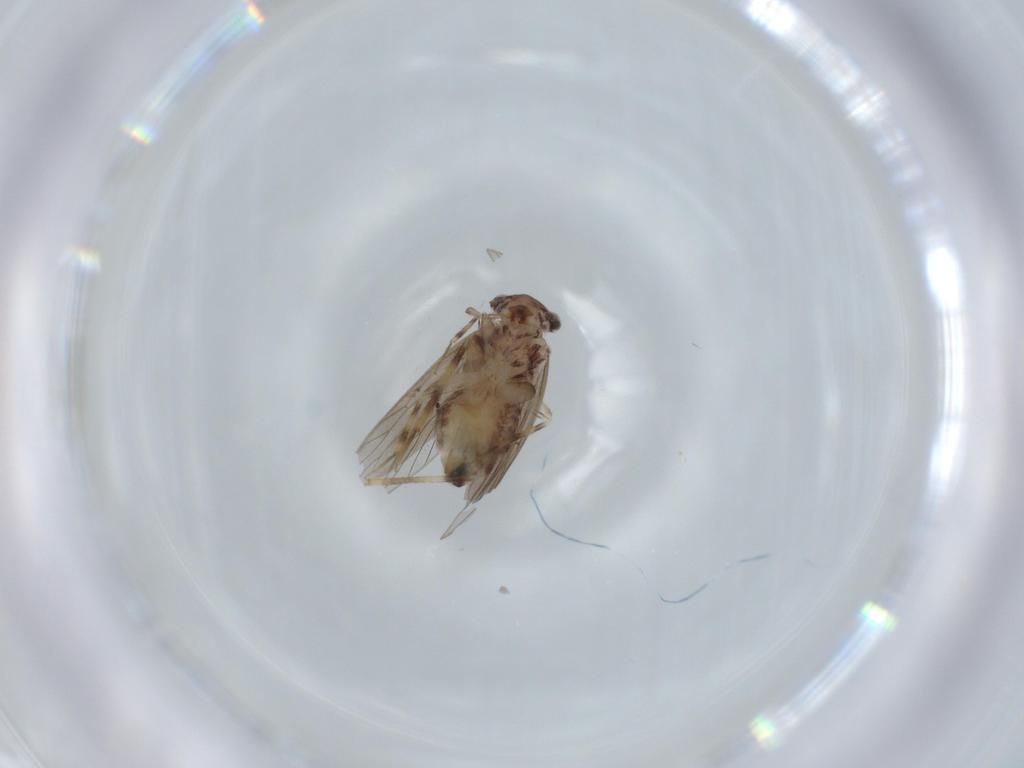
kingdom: Animalia
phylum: Arthropoda
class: Insecta
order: Psocodea
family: Lepidopsocidae
